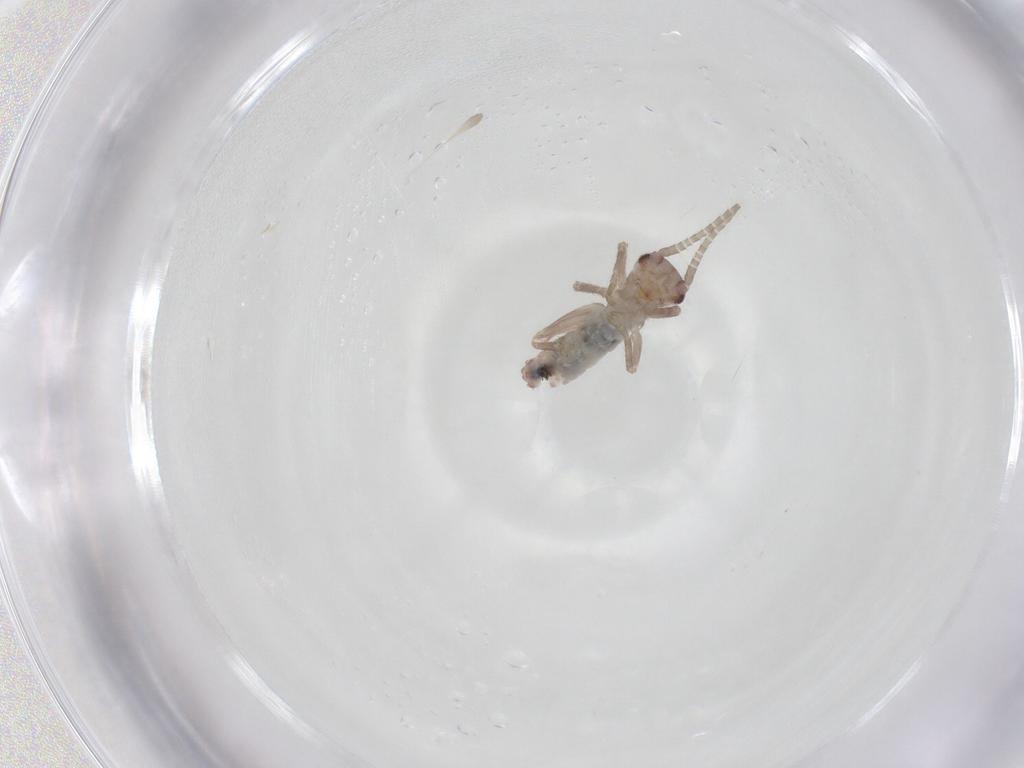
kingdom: Animalia
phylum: Arthropoda
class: Insecta
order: Orthoptera
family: Mogoplistidae
